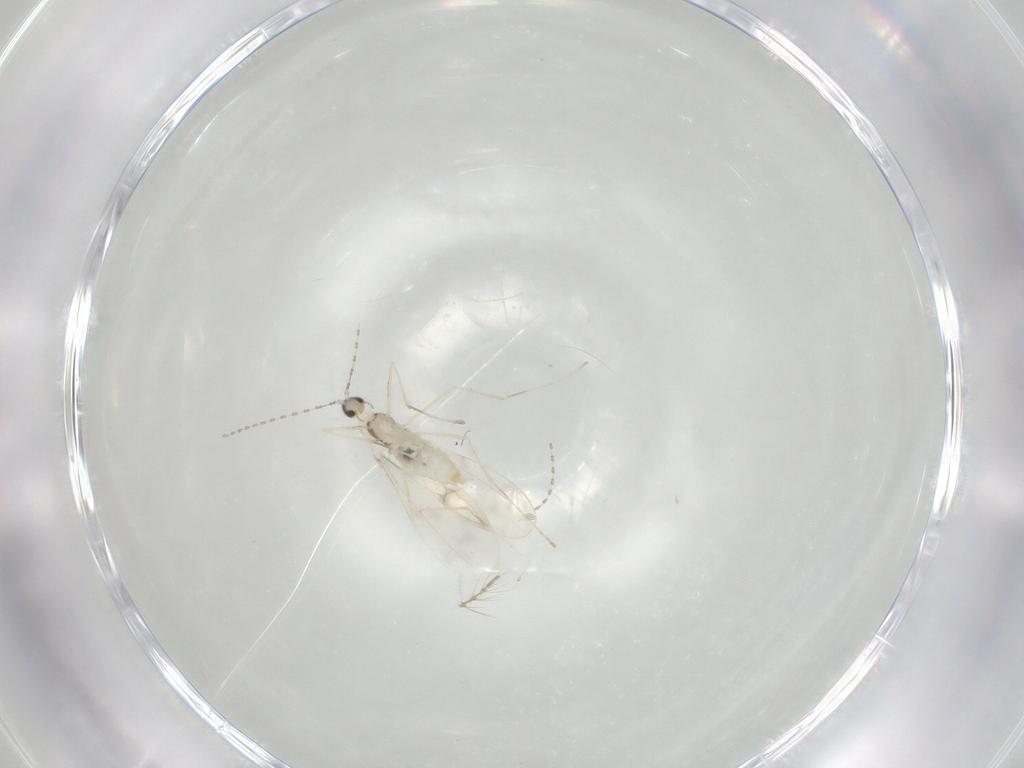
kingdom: Animalia
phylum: Arthropoda
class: Insecta
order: Diptera
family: Cecidomyiidae
